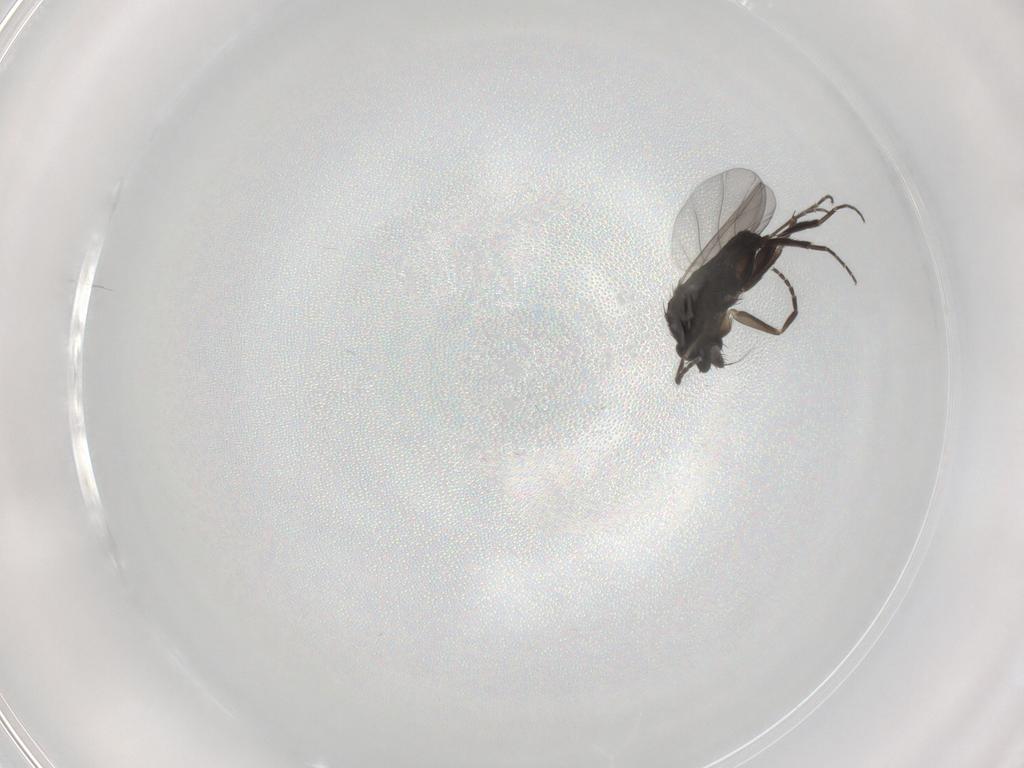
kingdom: Animalia
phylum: Arthropoda
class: Insecta
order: Diptera
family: Phoridae
